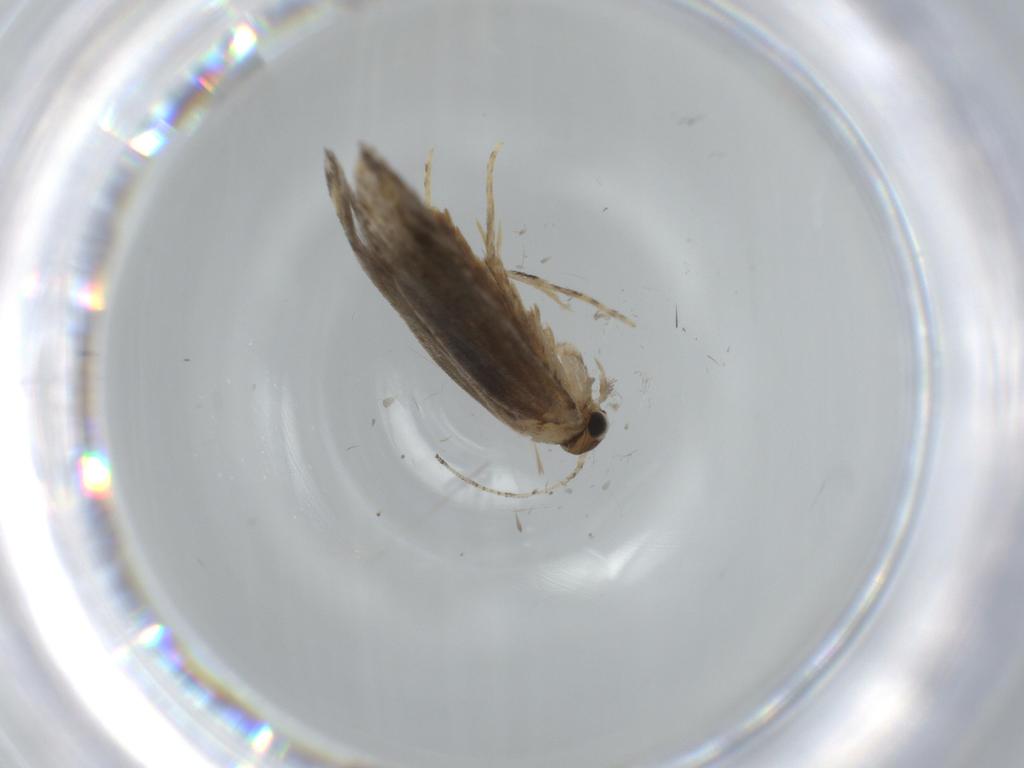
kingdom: Animalia
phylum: Arthropoda
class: Insecta
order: Lepidoptera
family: Tineidae
